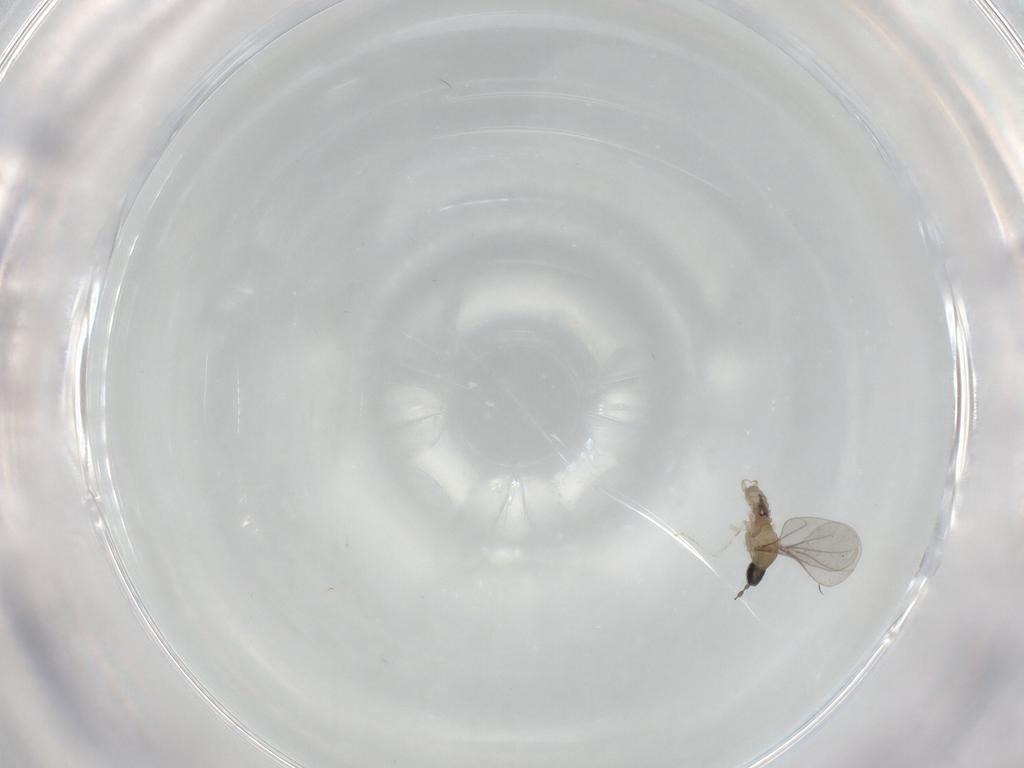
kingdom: Animalia
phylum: Arthropoda
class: Insecta
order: Diptera
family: Cecidomyiidae
